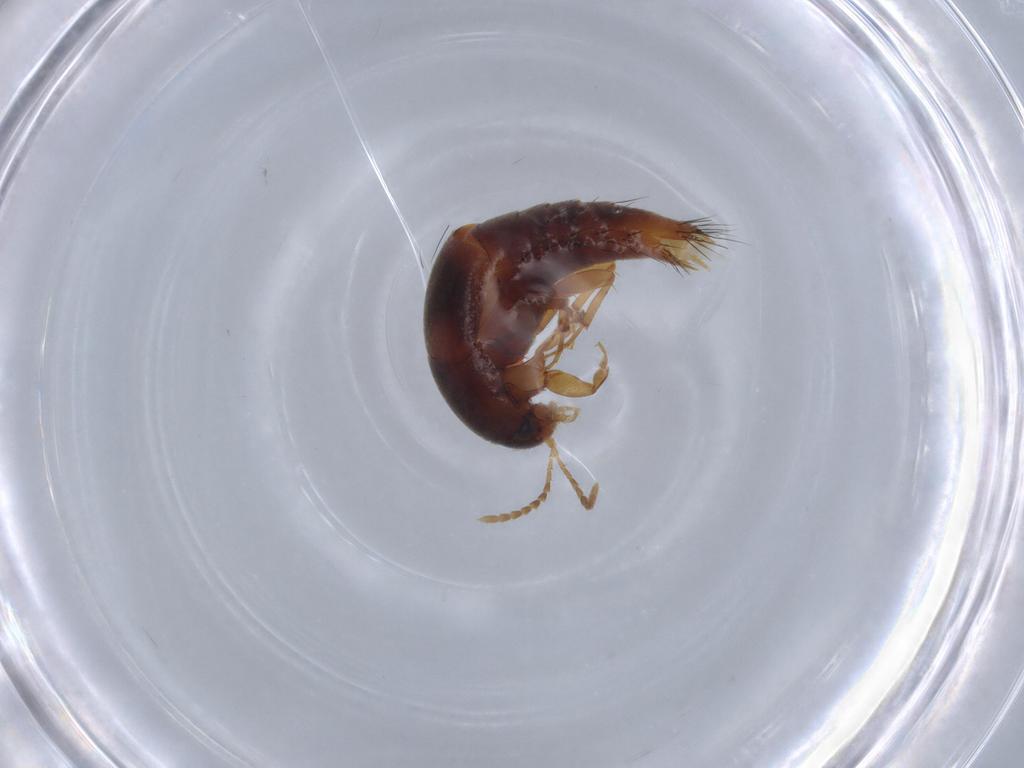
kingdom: Animalia
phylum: Arthropoda
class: Insecta
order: Coleoptera
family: Staphylinidae
